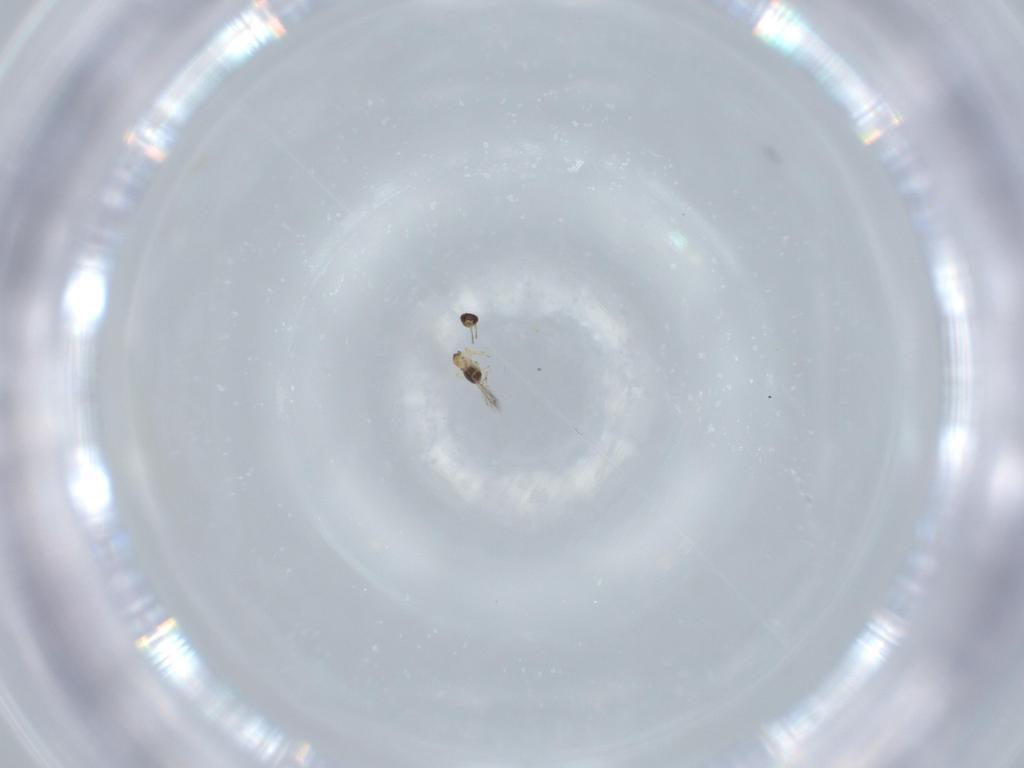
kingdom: Animalia
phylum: Arthropoda
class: Insecta
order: Hymenoptera
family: Mymaridae
